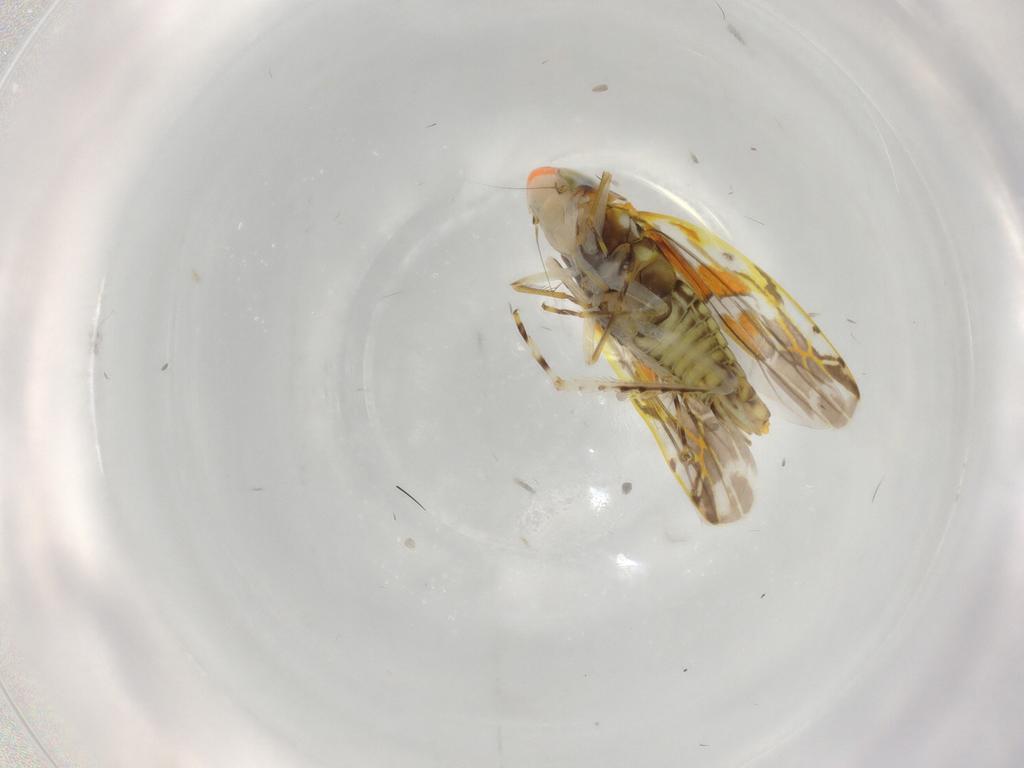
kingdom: Animalia
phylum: Arthropoda
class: Insecta
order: Hemiptera
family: Cicadellidae
